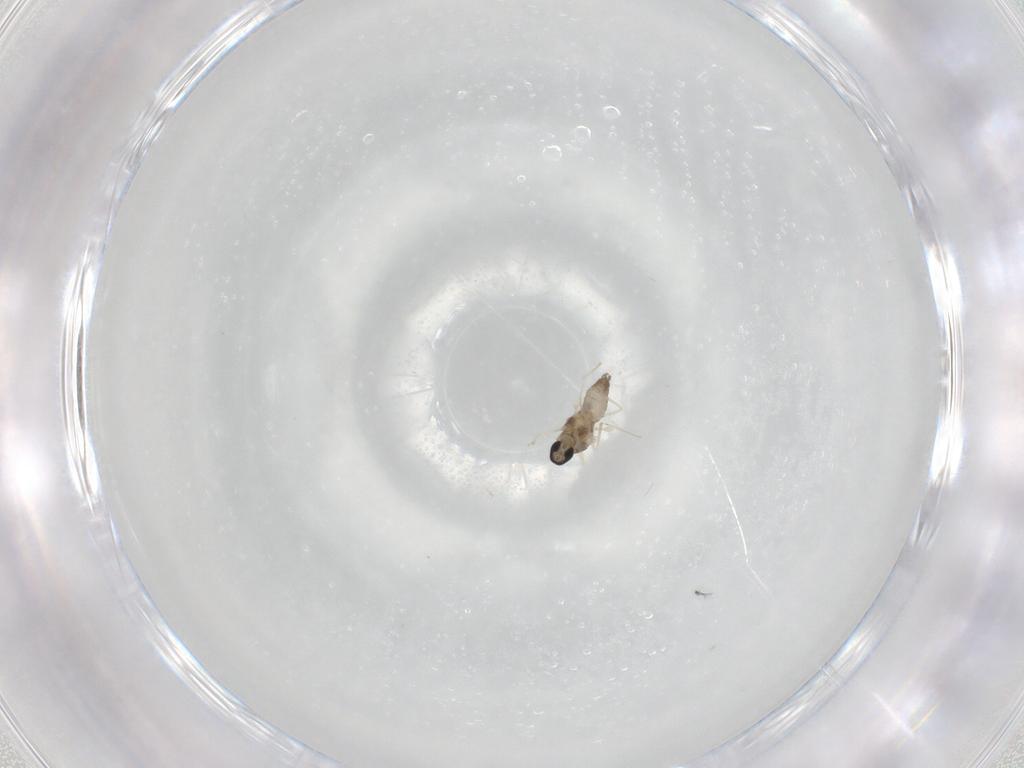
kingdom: Animalia
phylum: Arthropoda
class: Insecta
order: Diptera
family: Cecidomyiidae
